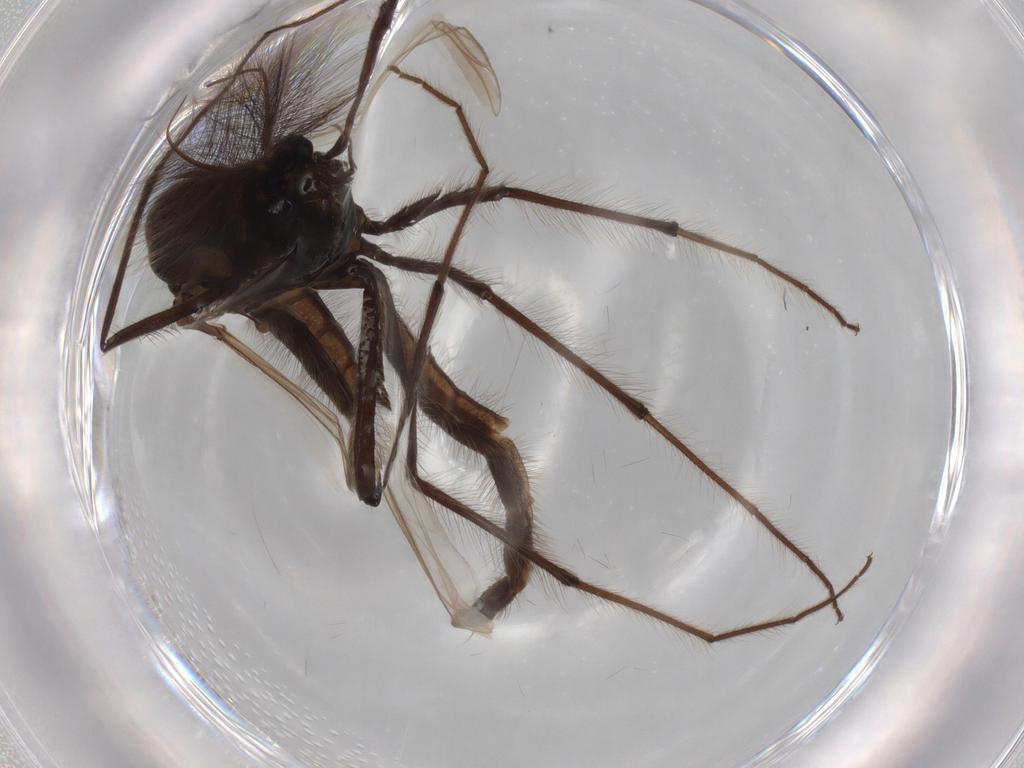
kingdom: Animalia
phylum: Arthropoda
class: Insecta
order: Diptera
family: Chironomidae
